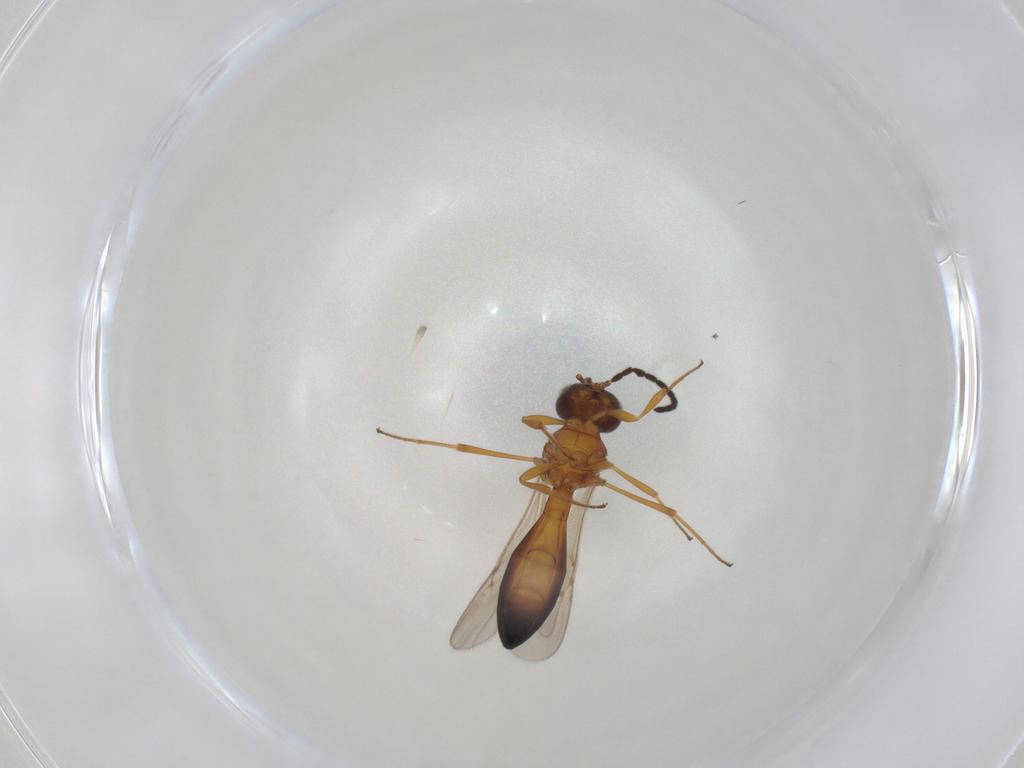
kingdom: Animalia
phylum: Arthropoda
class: Insecta
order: Hymenoptera
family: Scelionidae
